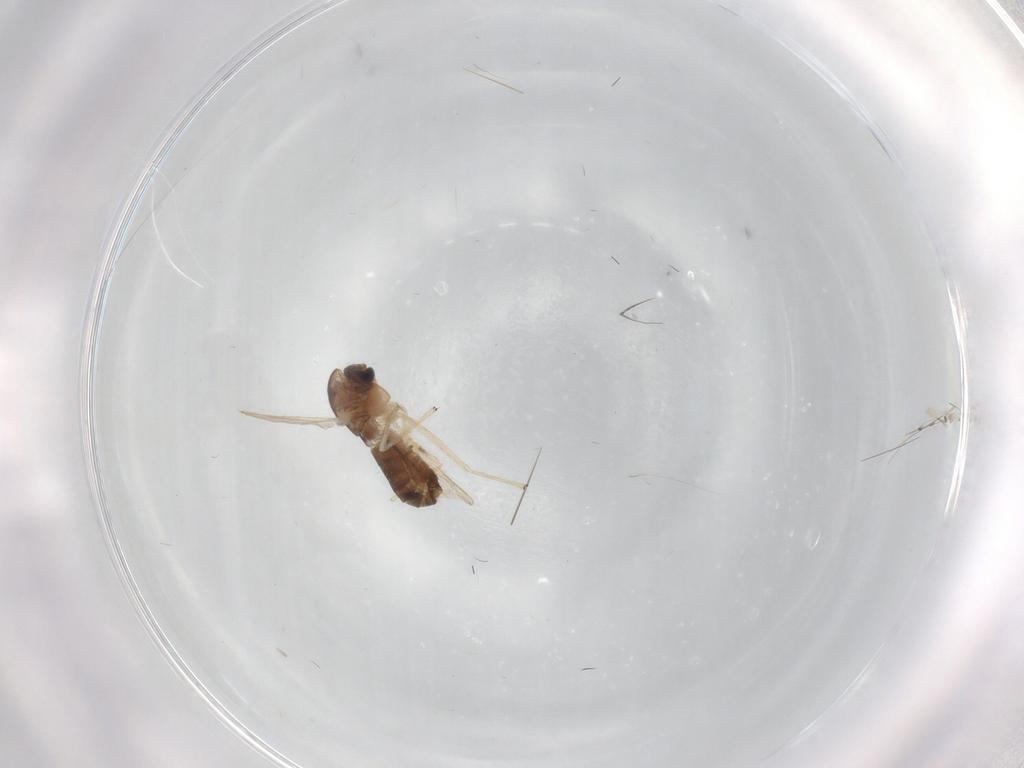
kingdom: Animalia
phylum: Arthropoda
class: Insecta
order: Diptera
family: Chironomidae
